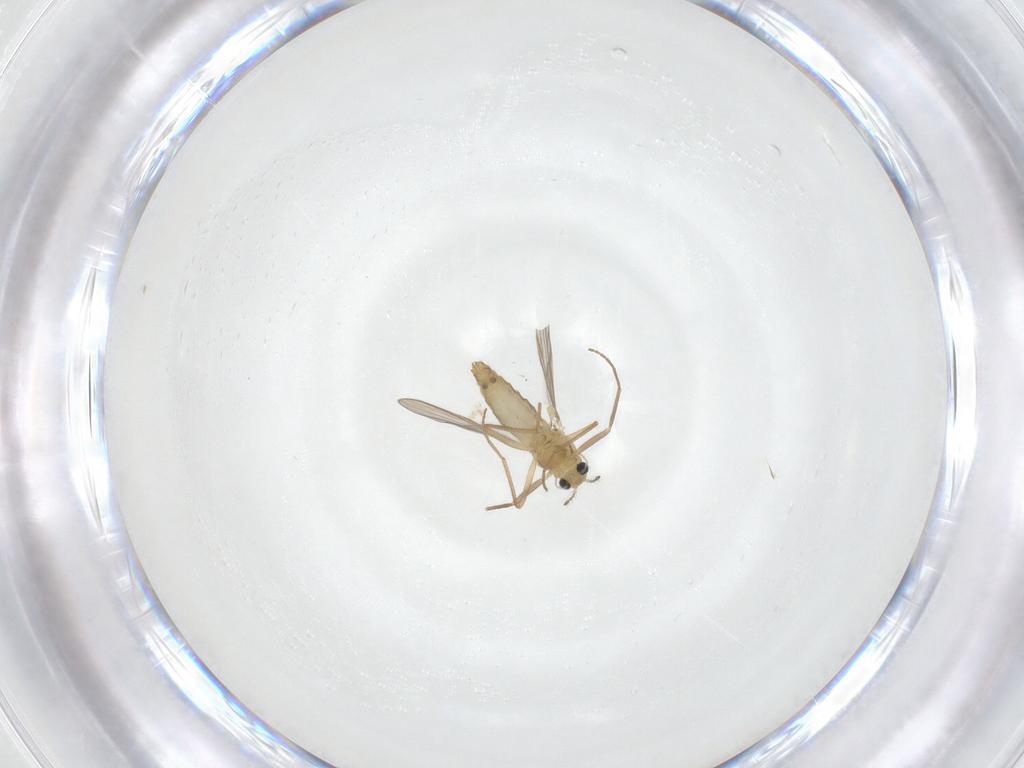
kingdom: Animalia
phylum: Arthropoda
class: Insecta
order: Diptera
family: Chironomidae
